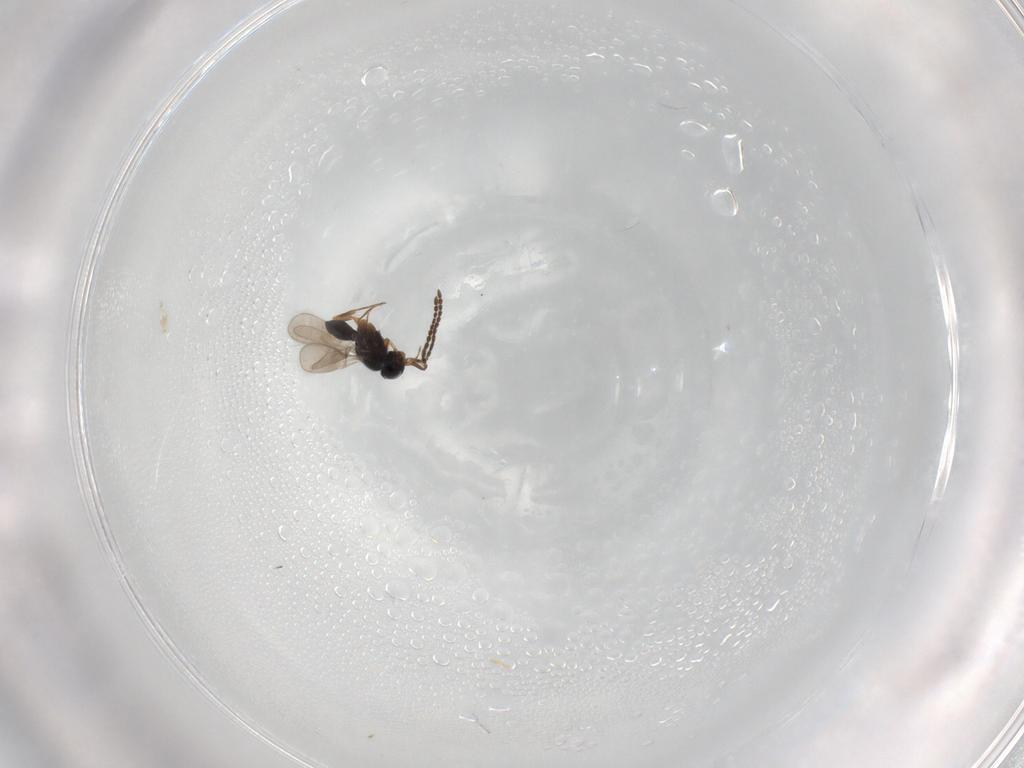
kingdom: Animalia
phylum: Arthropoda
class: Insecta
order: Hymenoptera
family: Scelionidae
